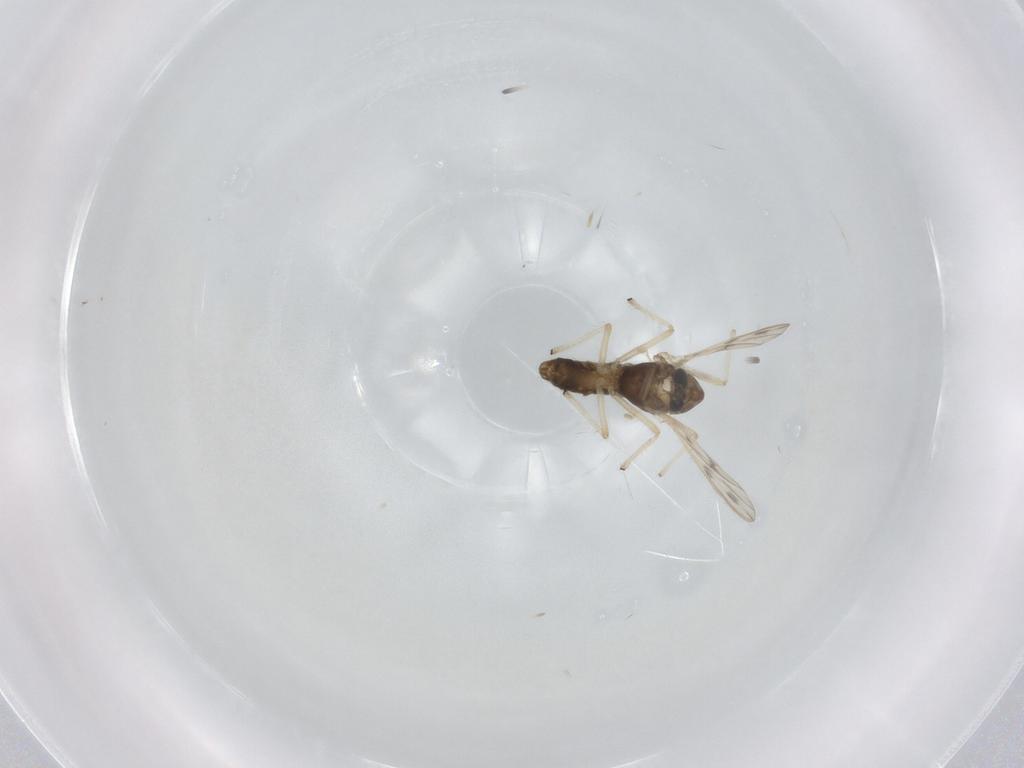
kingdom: Animalia
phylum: Arthropoda
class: Insecta
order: Diptera
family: Chironomidae
